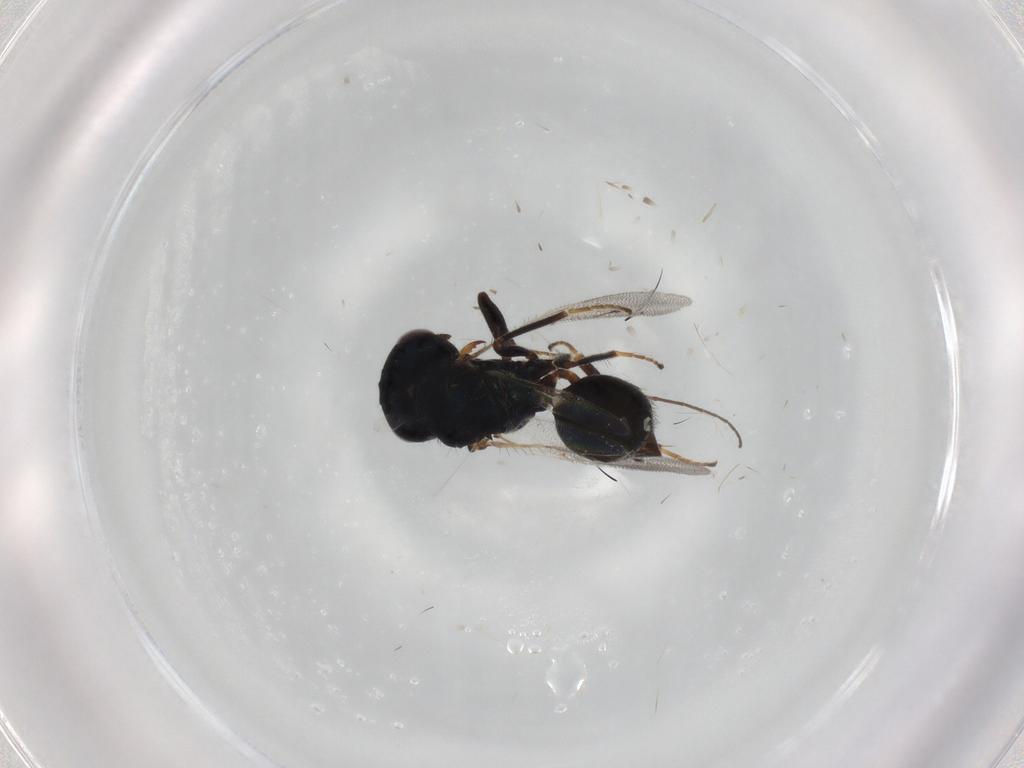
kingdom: Animalia
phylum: Arthropoda
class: Insecta
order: Hymenoptera
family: Pteromalidae
